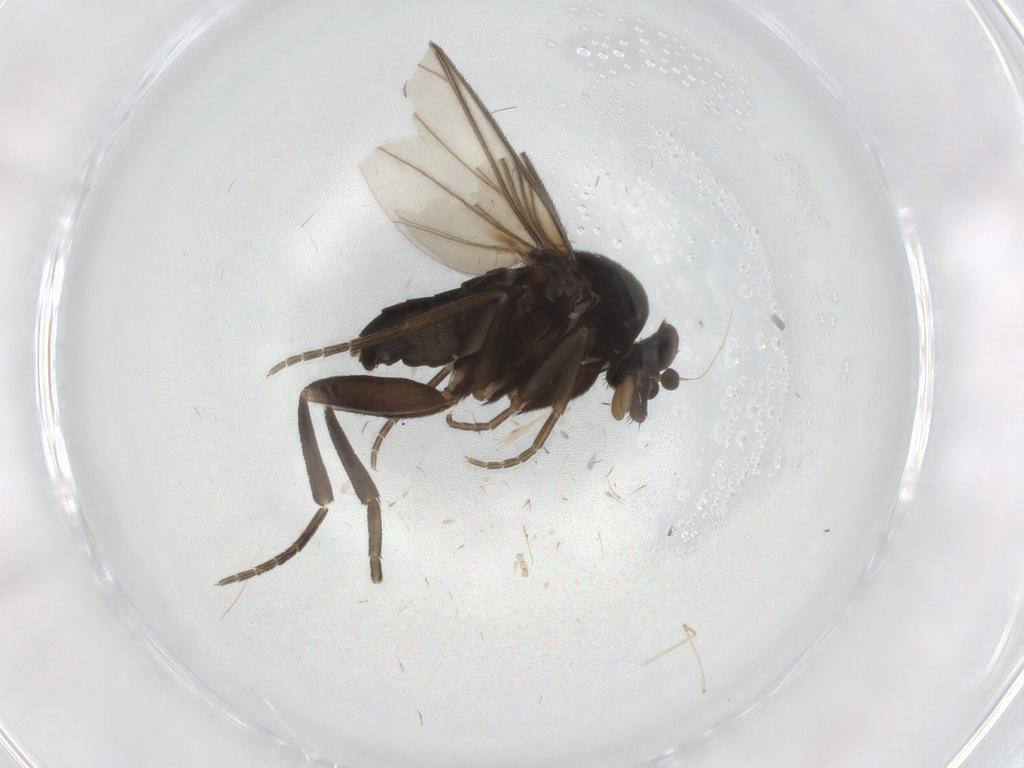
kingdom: Animalia
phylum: Arthropoda
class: Insecta
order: Diptera
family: Phoridae
